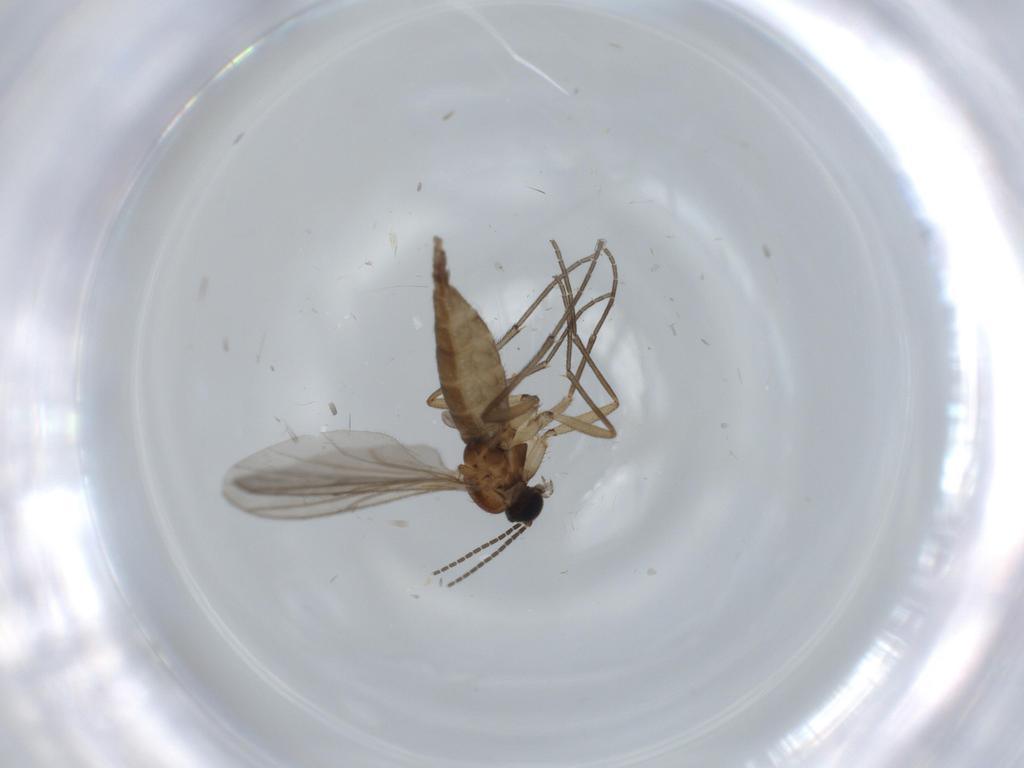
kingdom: Animalia
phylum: Arthropoda
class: Insecta
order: Diptera
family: Sciaridae
